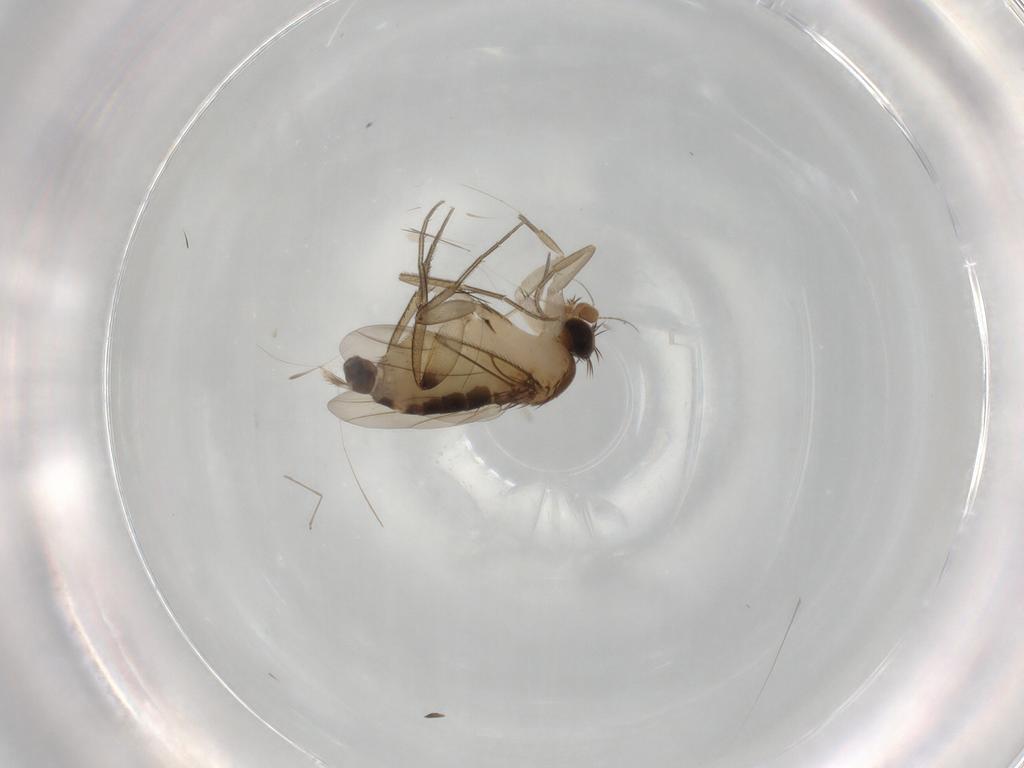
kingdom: Animalia
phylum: Arthropoda
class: Insecta
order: Diptera
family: Phoridae
